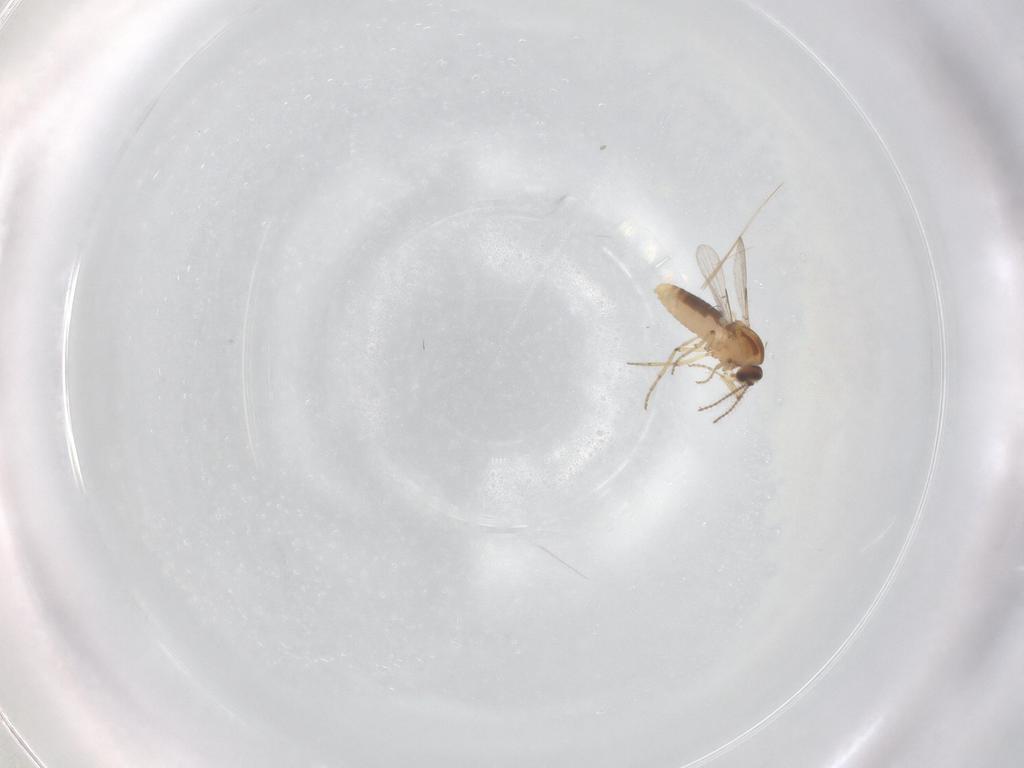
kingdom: Animalia
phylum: Arthropoda
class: Insecta
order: Diptera
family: Ceratopogonidae
